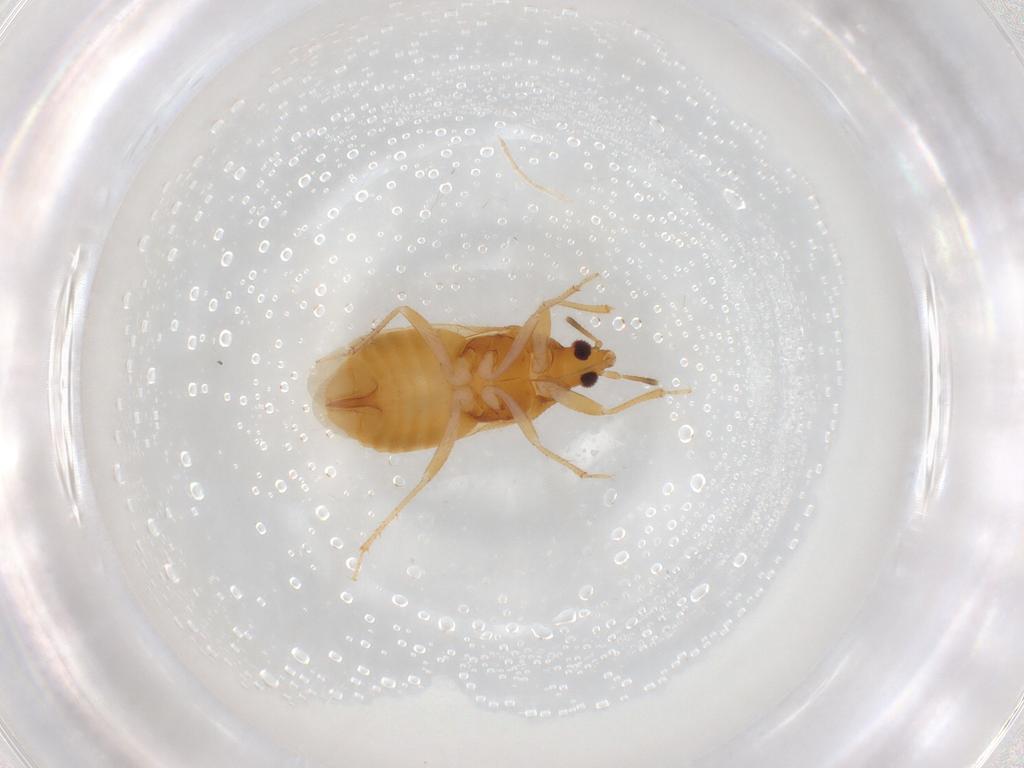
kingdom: Animalia
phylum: Arthropoda
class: Insecta
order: Hemiptera
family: Lasiochilidae
